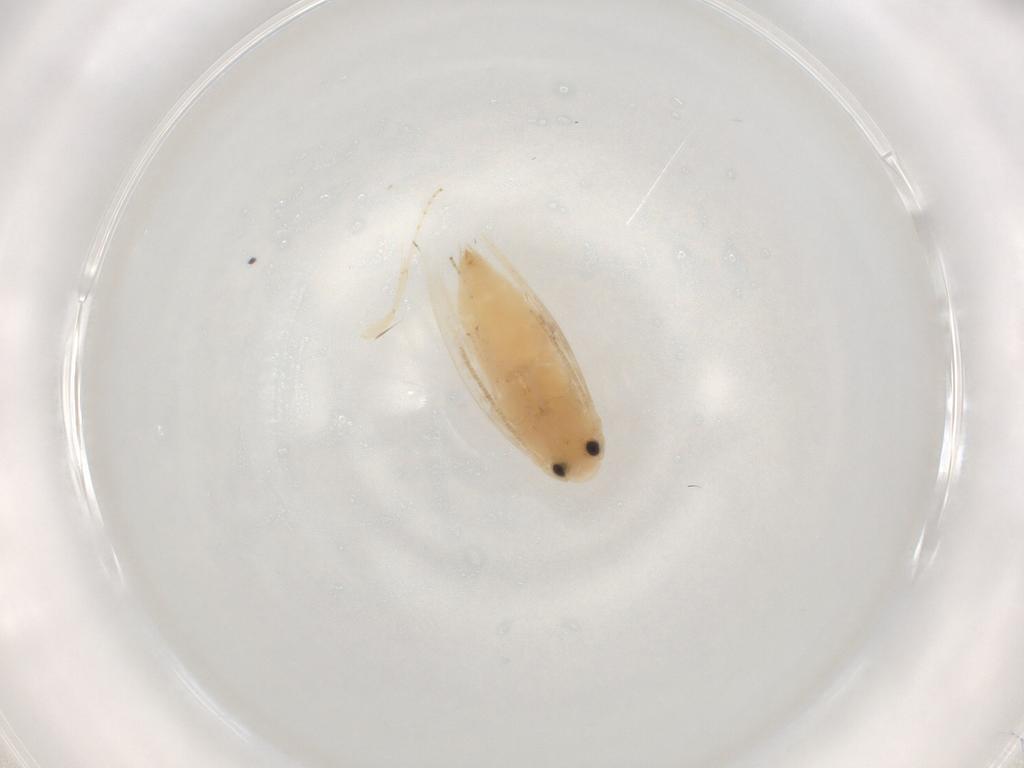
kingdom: Animalia
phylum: Arthropoda
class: Insecta
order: Lepidoptera
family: Gracillariidae
